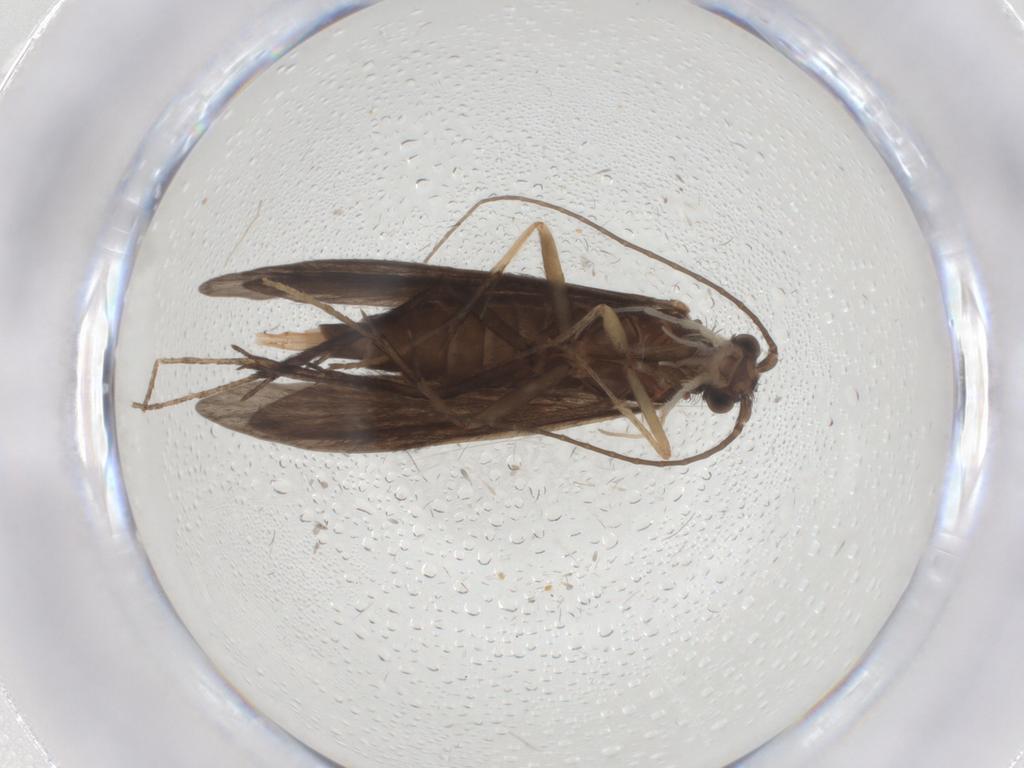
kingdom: Animalia
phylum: Arthropoda
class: Insecta
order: Trichoptera
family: Xiphocentronidae
